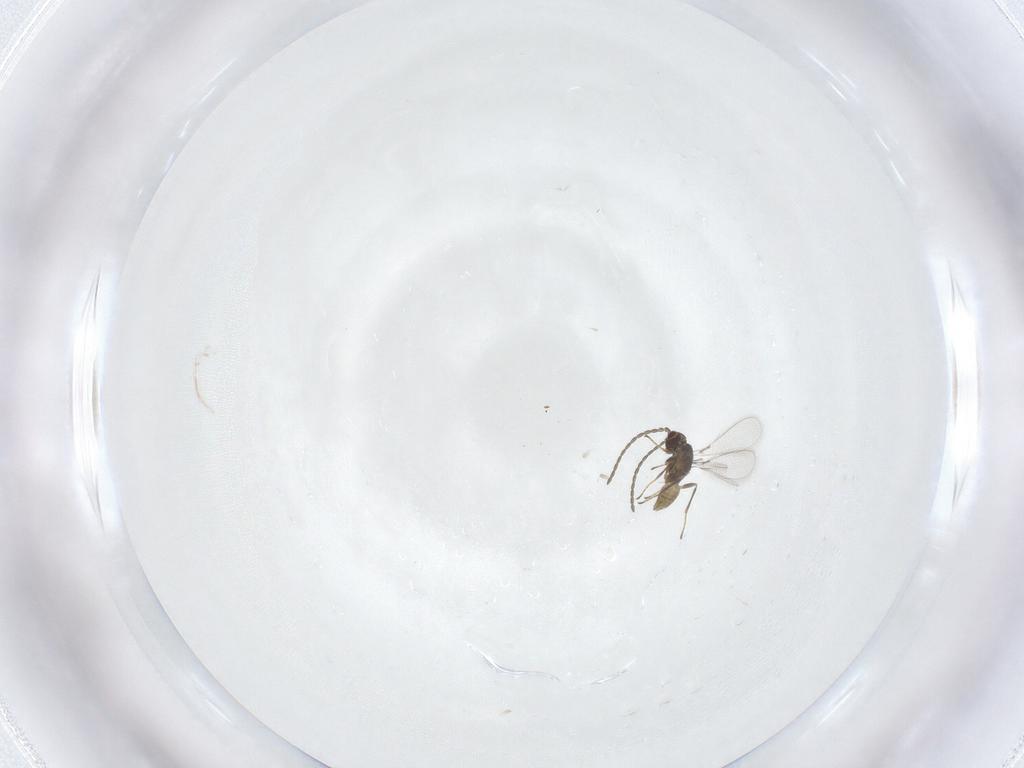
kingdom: Animalia
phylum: Arthropoda
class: Insecta
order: Hymenoptera
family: Mymaridae
